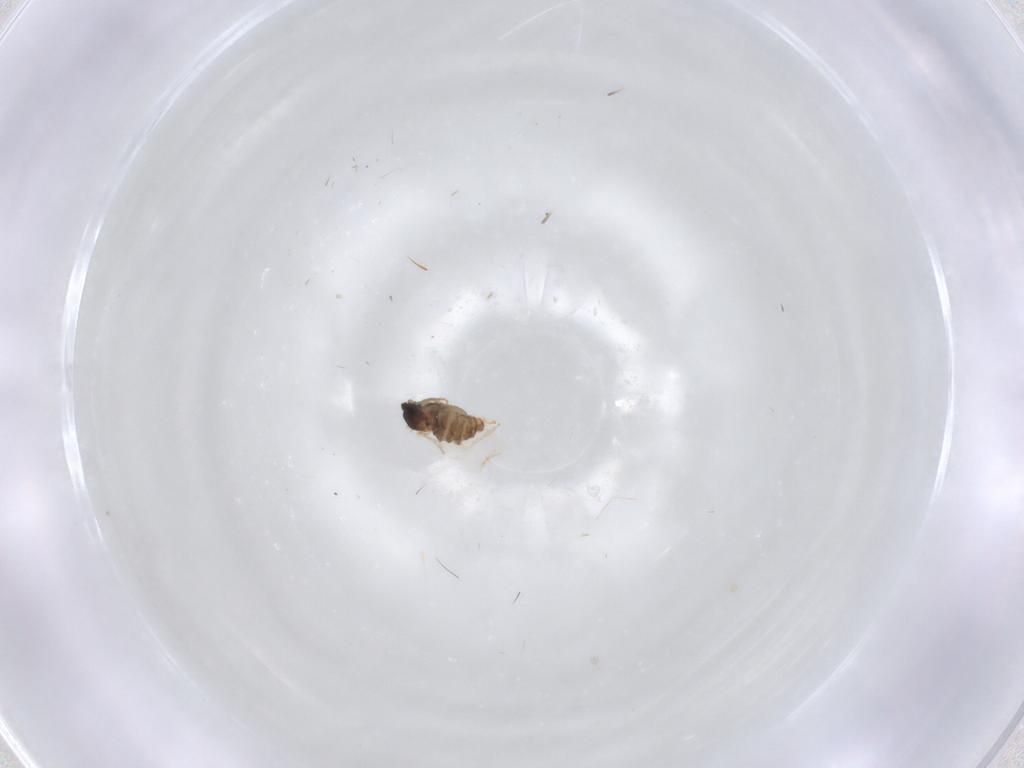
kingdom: Animalia
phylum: Arthropoda
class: Insecta
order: Diptera
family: Cecidomyiidae
